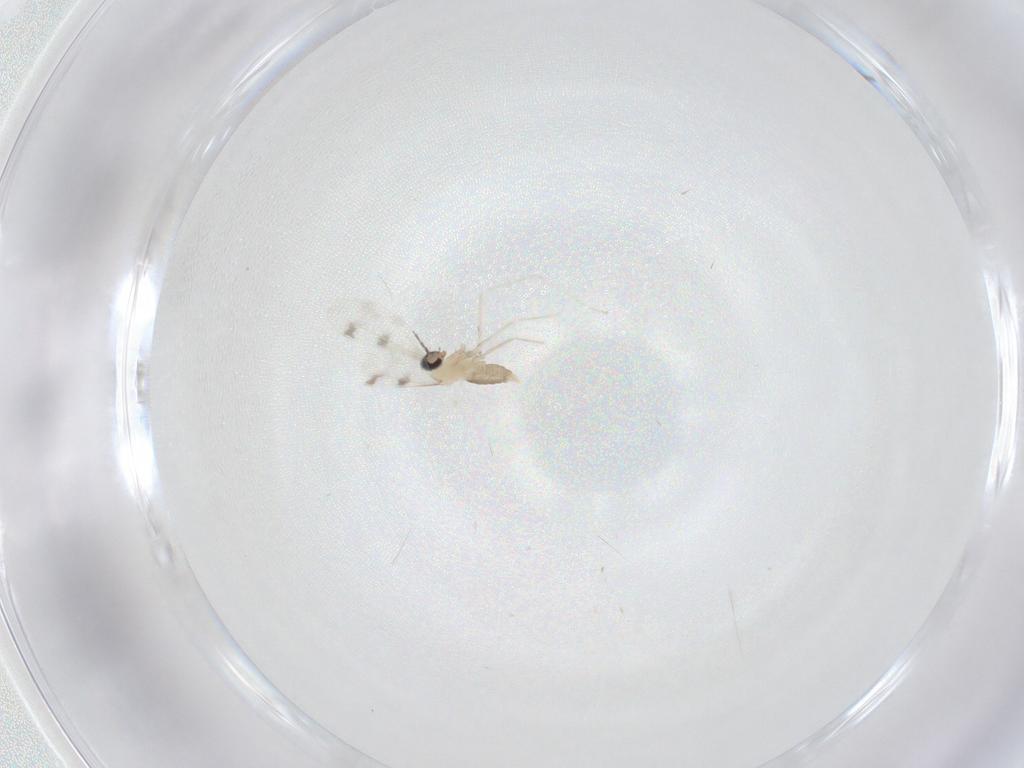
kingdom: Animalia
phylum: Arthropoda
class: Insecta
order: Diptera
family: Cecidomyiidae
